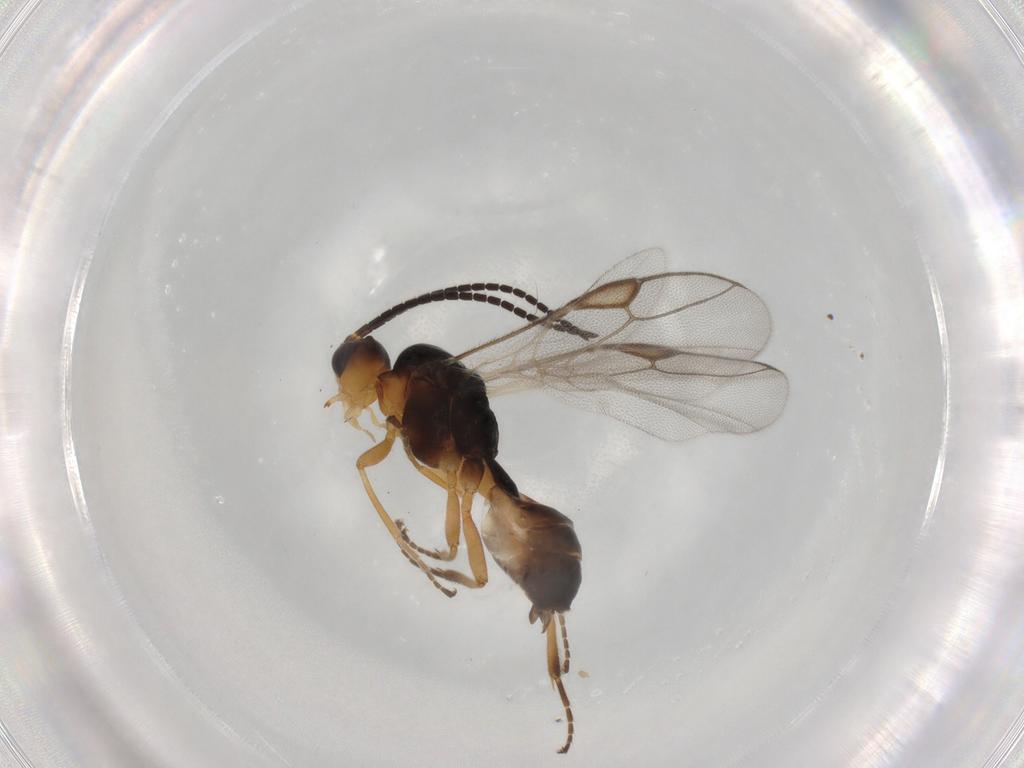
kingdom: Animalia
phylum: Arthropoda
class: Insecta
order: Hymenoptera
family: Braconidae
